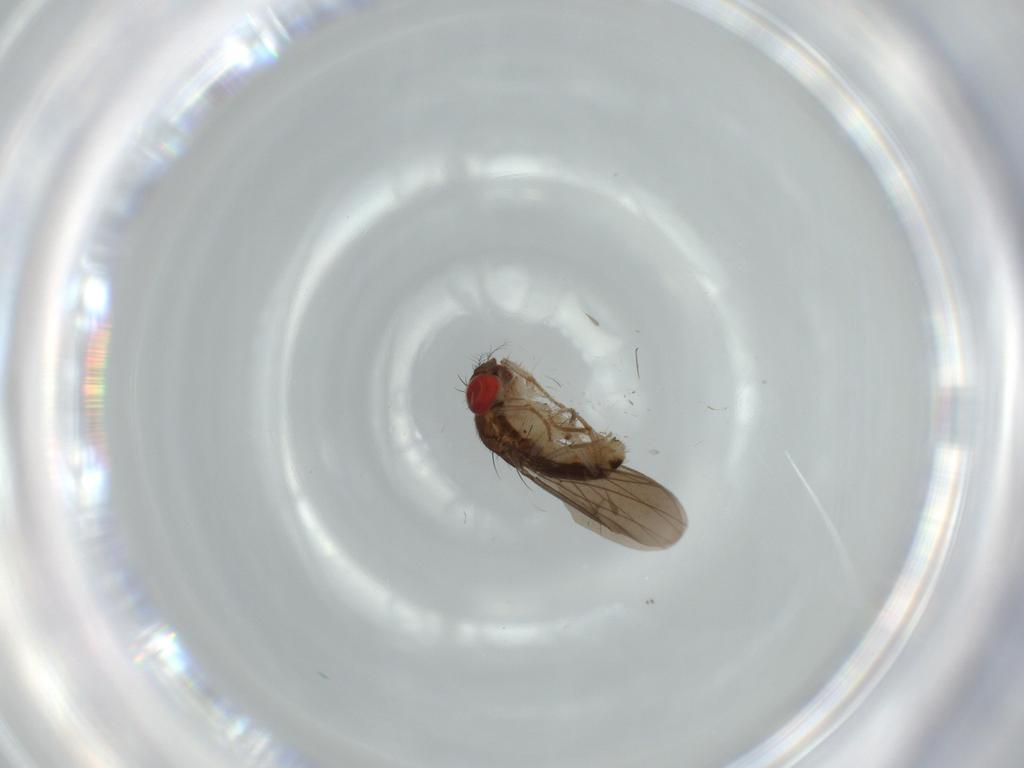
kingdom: Animalia
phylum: Arthropoda
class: Insecta
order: Diptera
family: Drosophilidae
